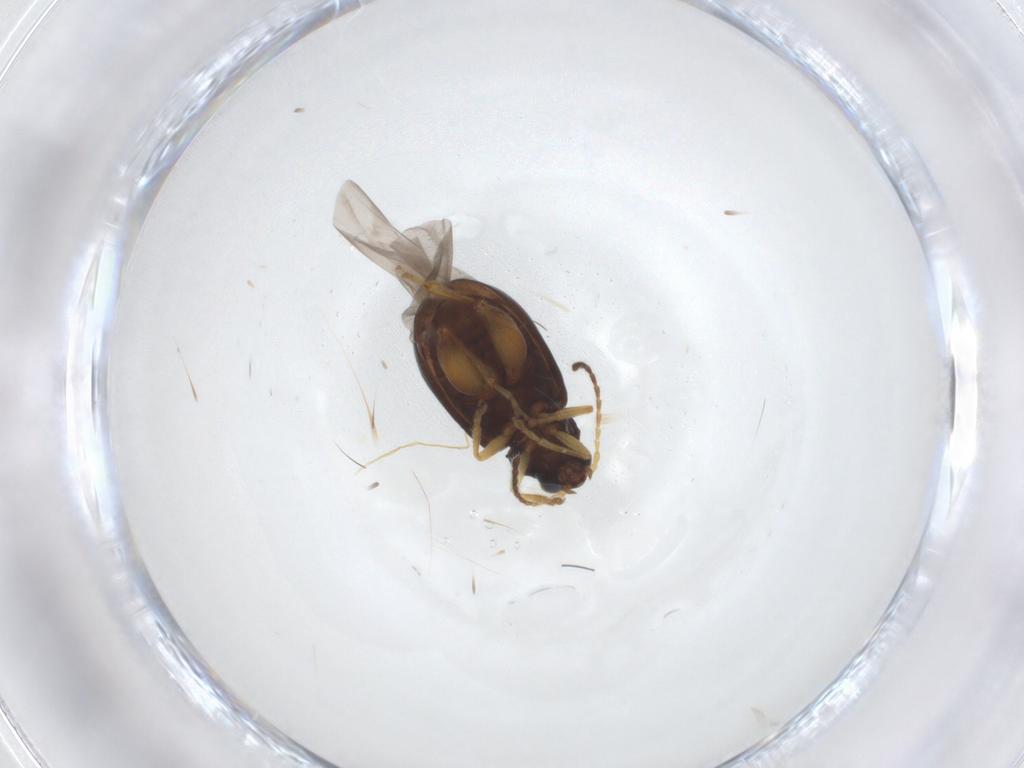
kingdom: Animalia
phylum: Arthropoda
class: Insecta
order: Coleoptera
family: Chrysomelidae
